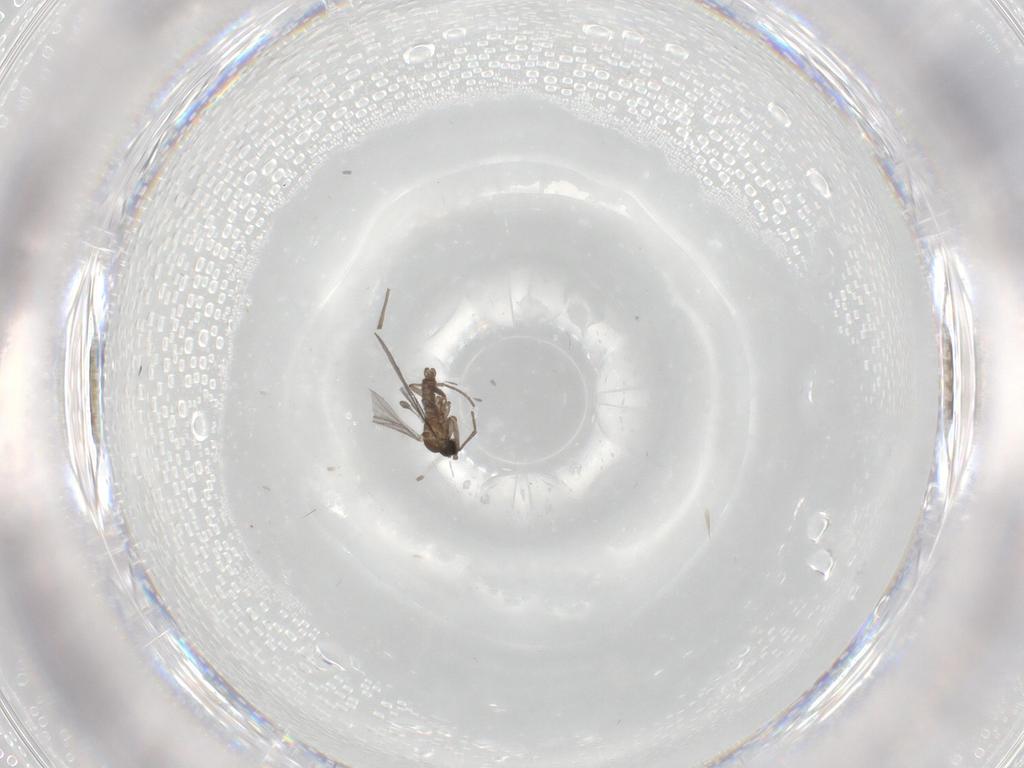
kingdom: Animalia
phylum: Arthropoda
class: Insecta
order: Diptera
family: Sciaridae
